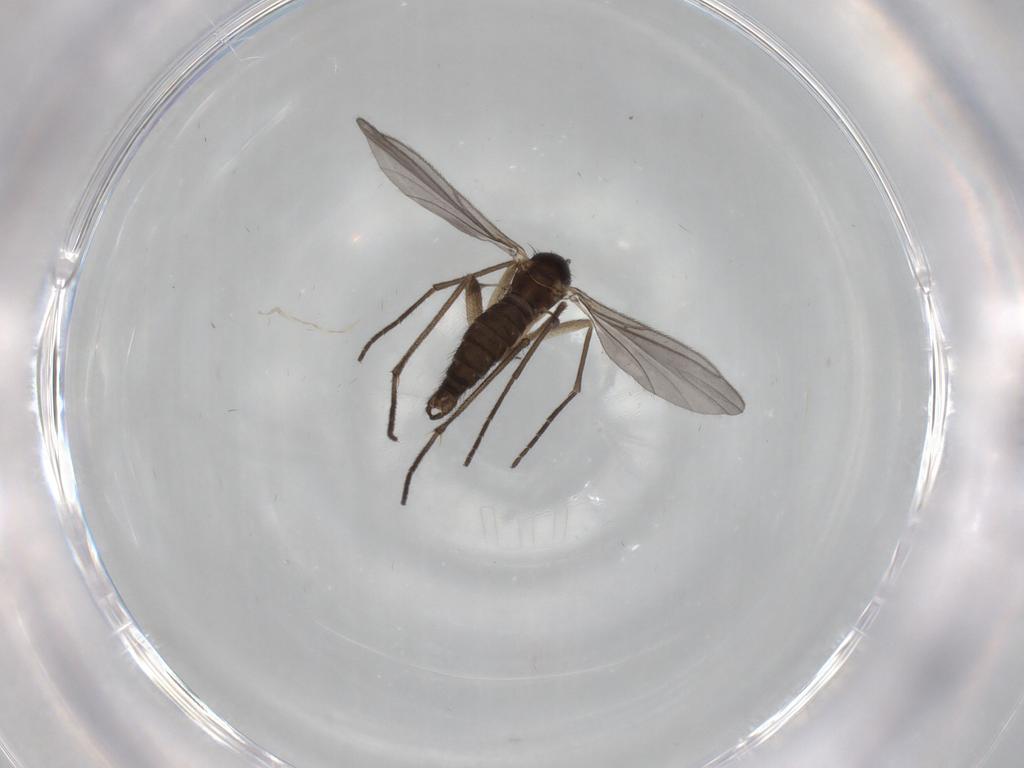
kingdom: Animalia
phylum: Arthropoda
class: Insecta
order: Diptera
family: Sciaridae
